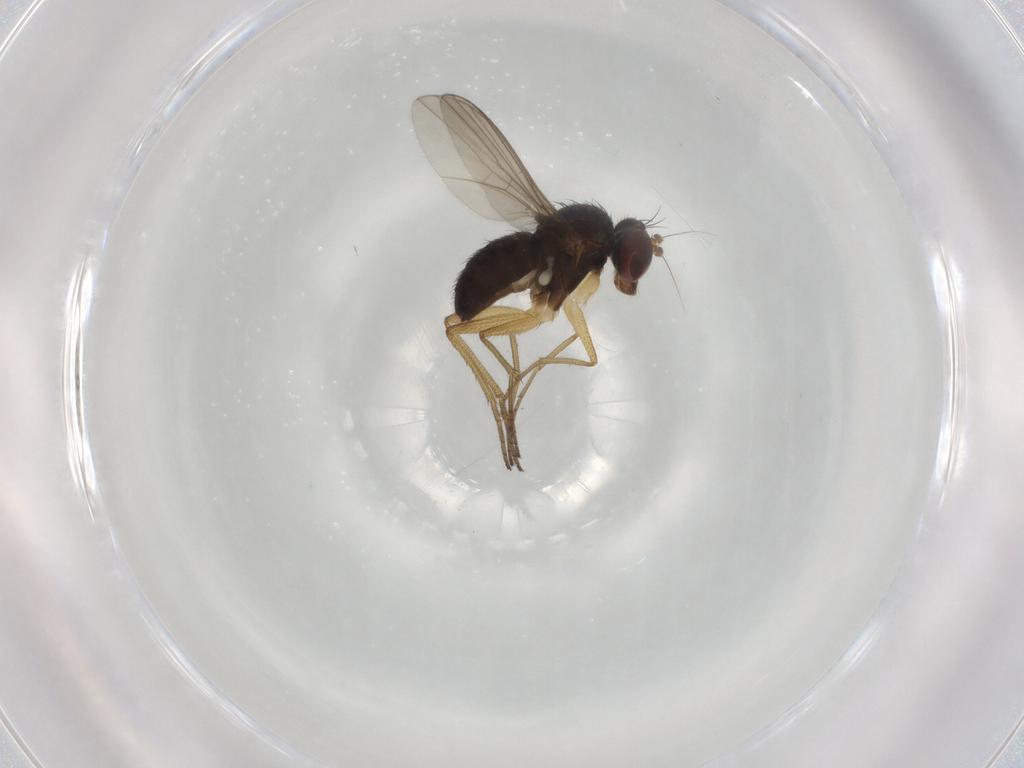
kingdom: Animalia
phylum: Arthropoda
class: Insecta
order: Diptera
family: Dolichopodidae
